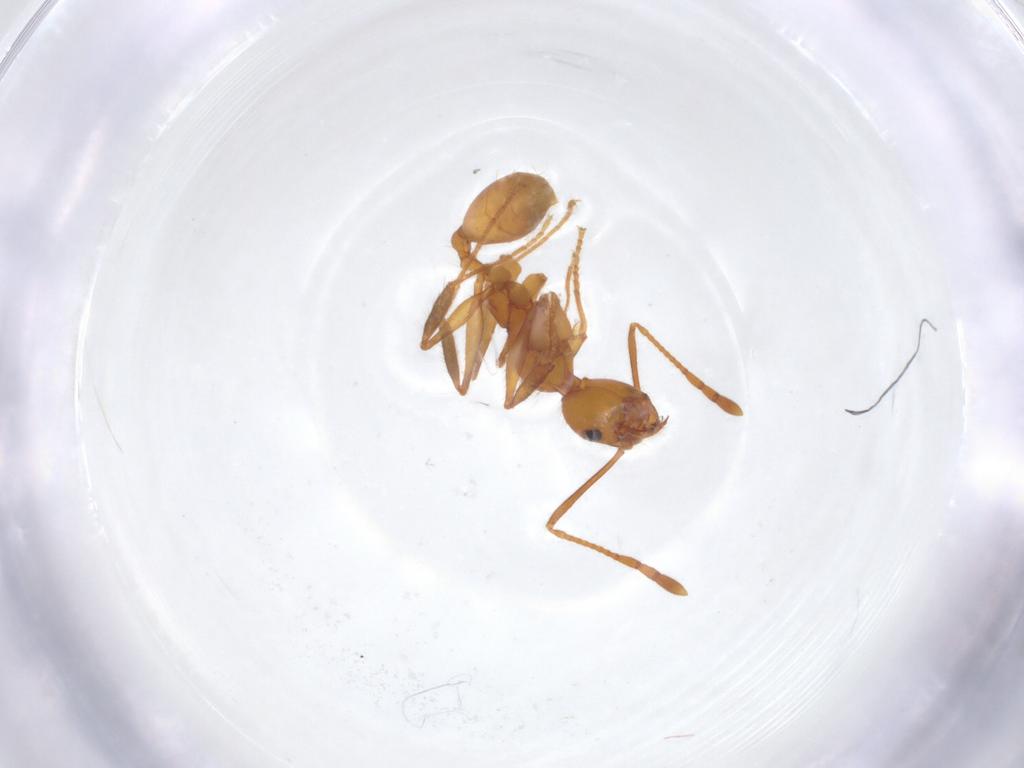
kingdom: Animalia
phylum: Arthropoda
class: Insecta
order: Hymenoptera
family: Formicidae
